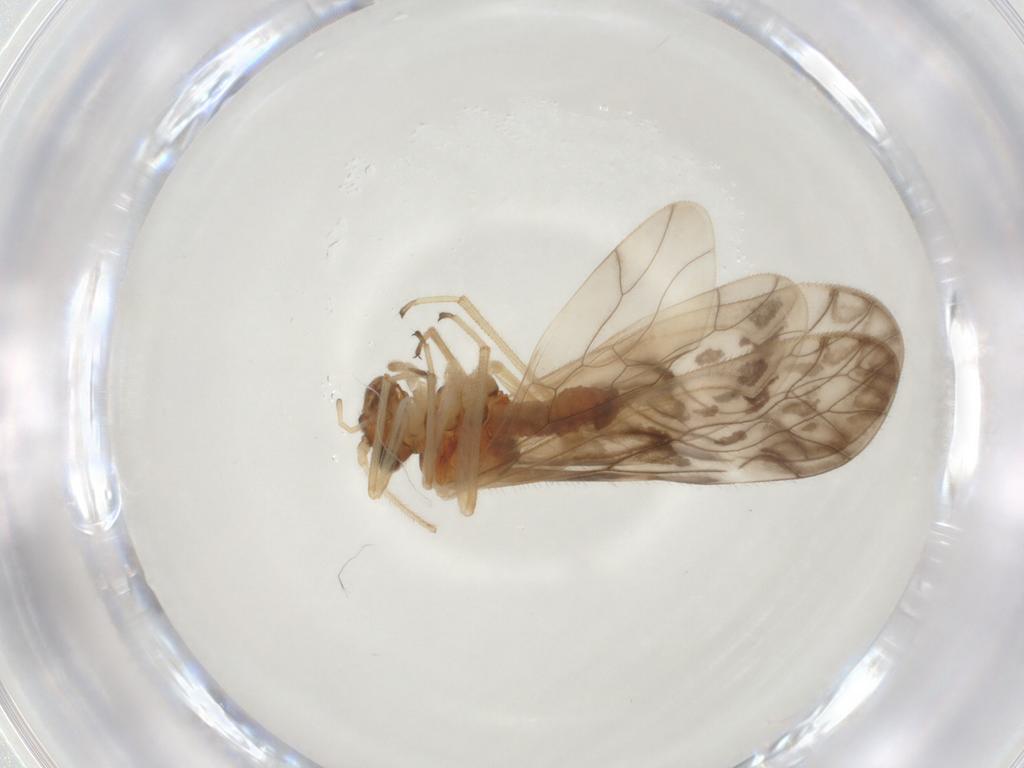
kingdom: Animalia
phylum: Arthropoda
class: Insecta
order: Psocodea
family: Caeciliusidae
